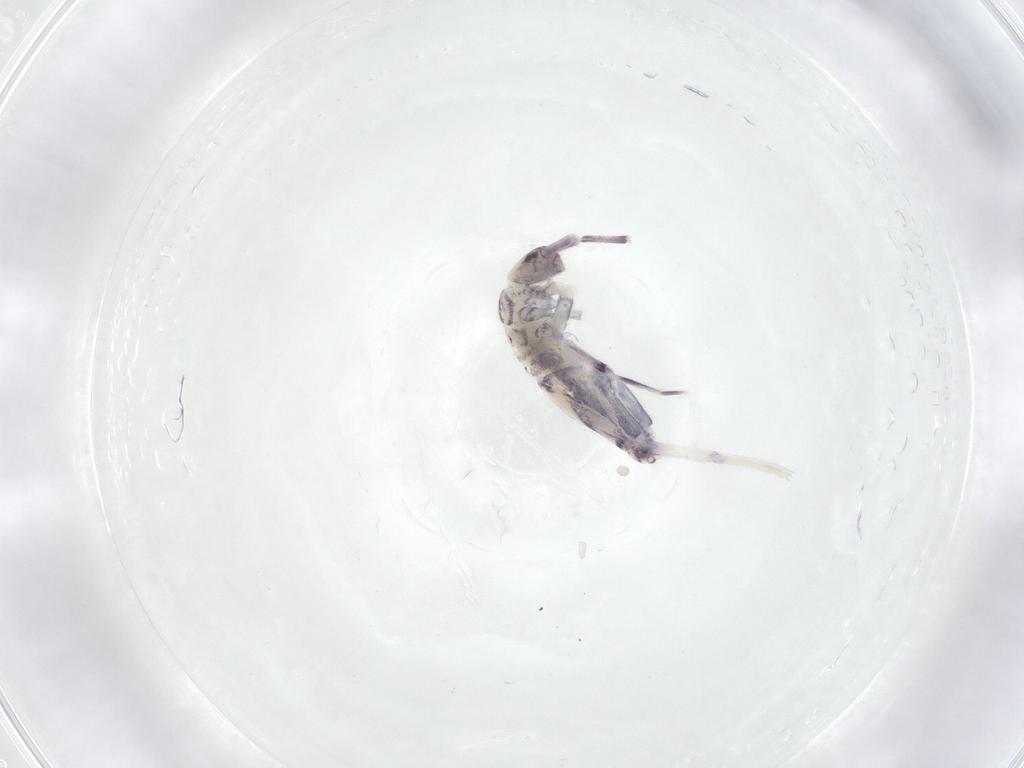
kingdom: Animalia
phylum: Arthropoda
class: Collembola
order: Entomobryomorpha
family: Entomobryidae
